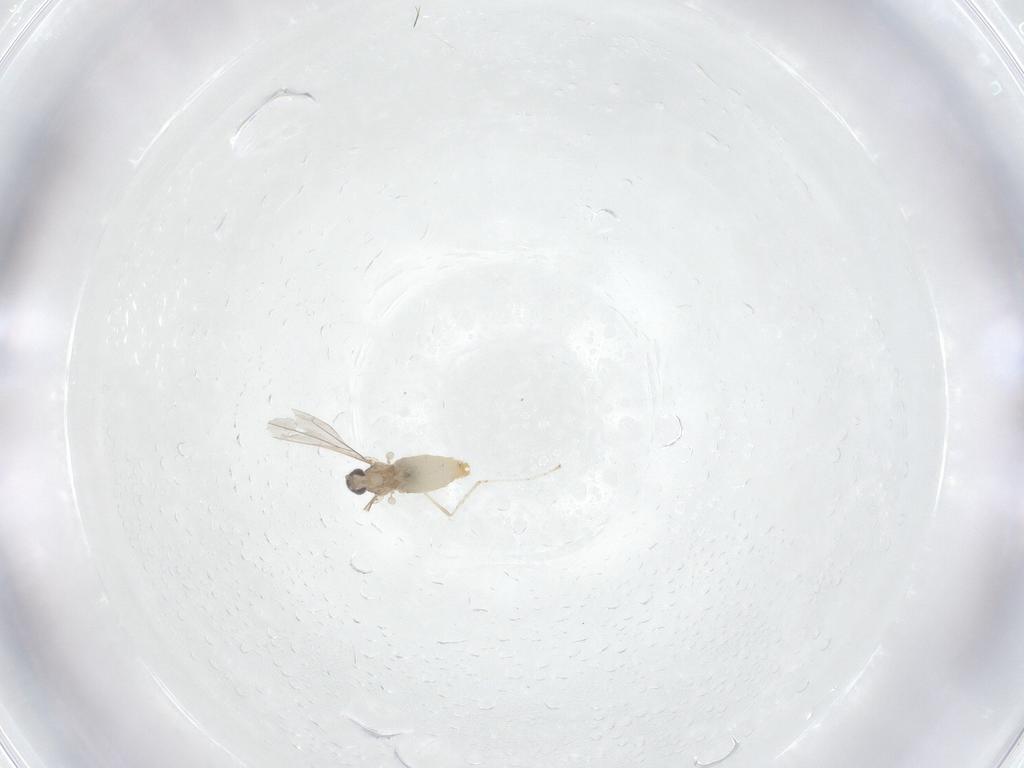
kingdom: Animalia
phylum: Arthropoda
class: Insecta
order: Diptera
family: Cecidomyiidae
